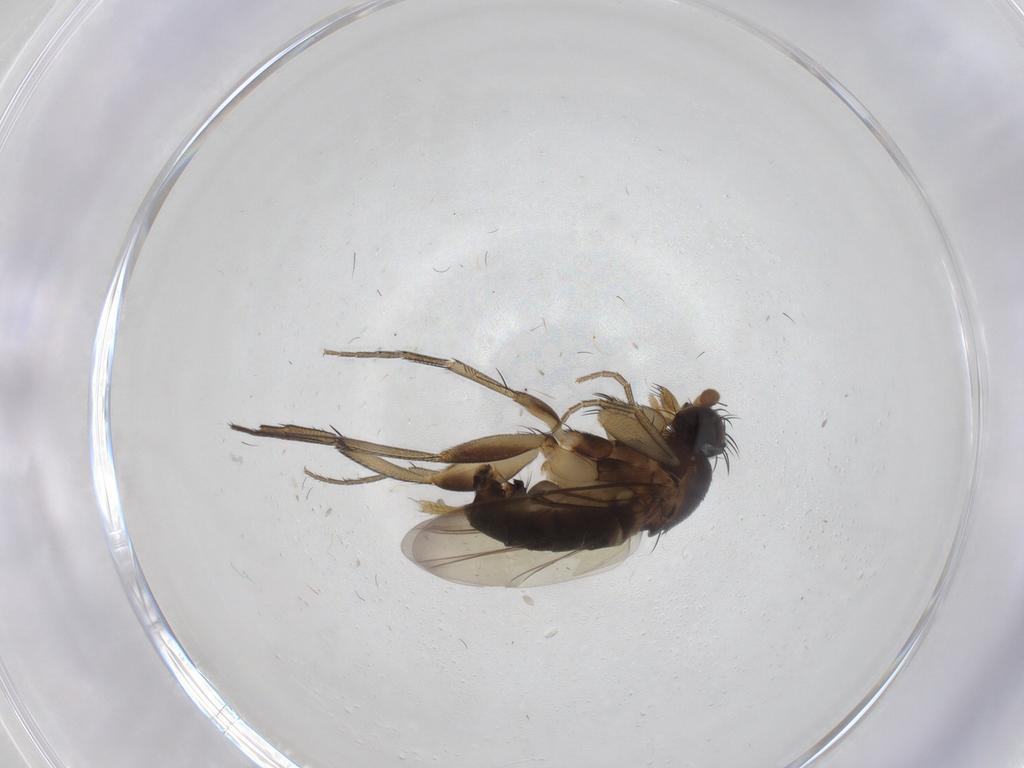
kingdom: Animalia
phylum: Arthropoda
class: Insecta
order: Diptera
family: Phoridae
